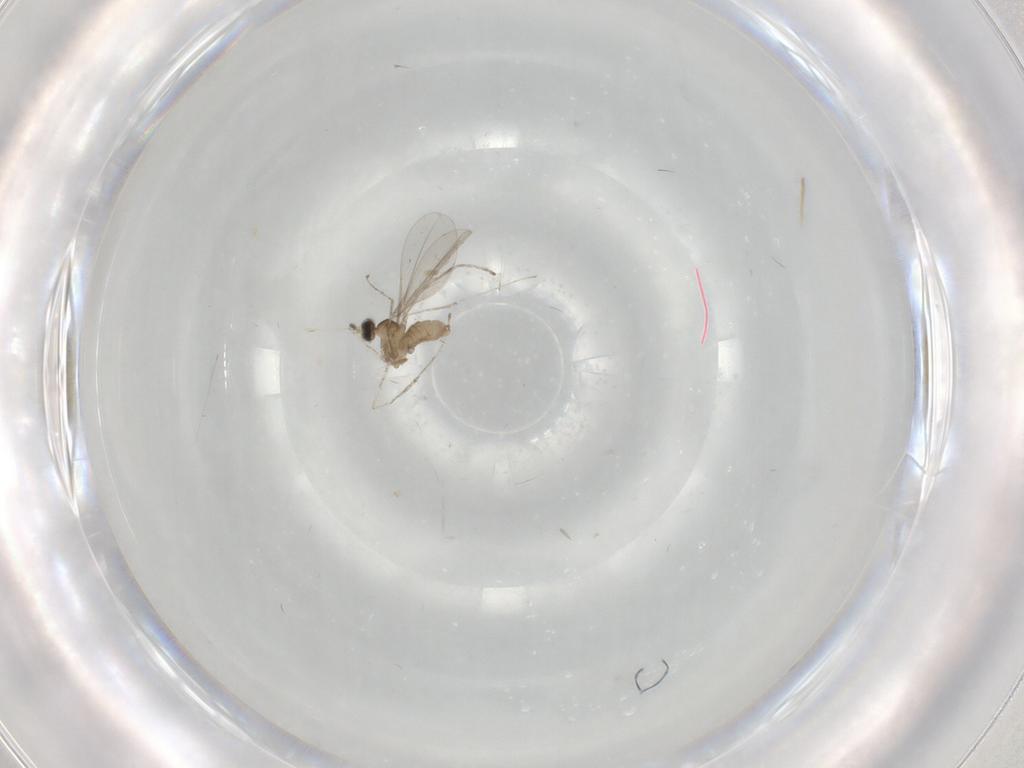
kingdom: Animalia
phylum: Arthropoda
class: Insecta
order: Diptera
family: Cecidomyiidae
